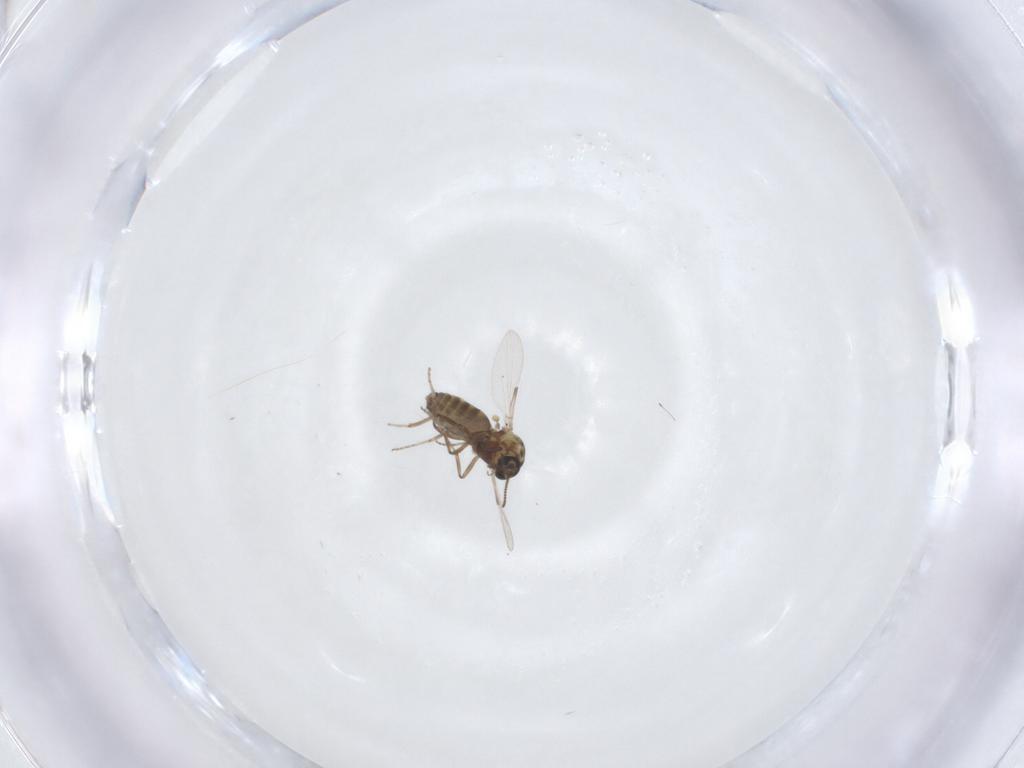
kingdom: Animalia
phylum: Arthropoda
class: Insecta
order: Diptera
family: Ceratopogonidae
